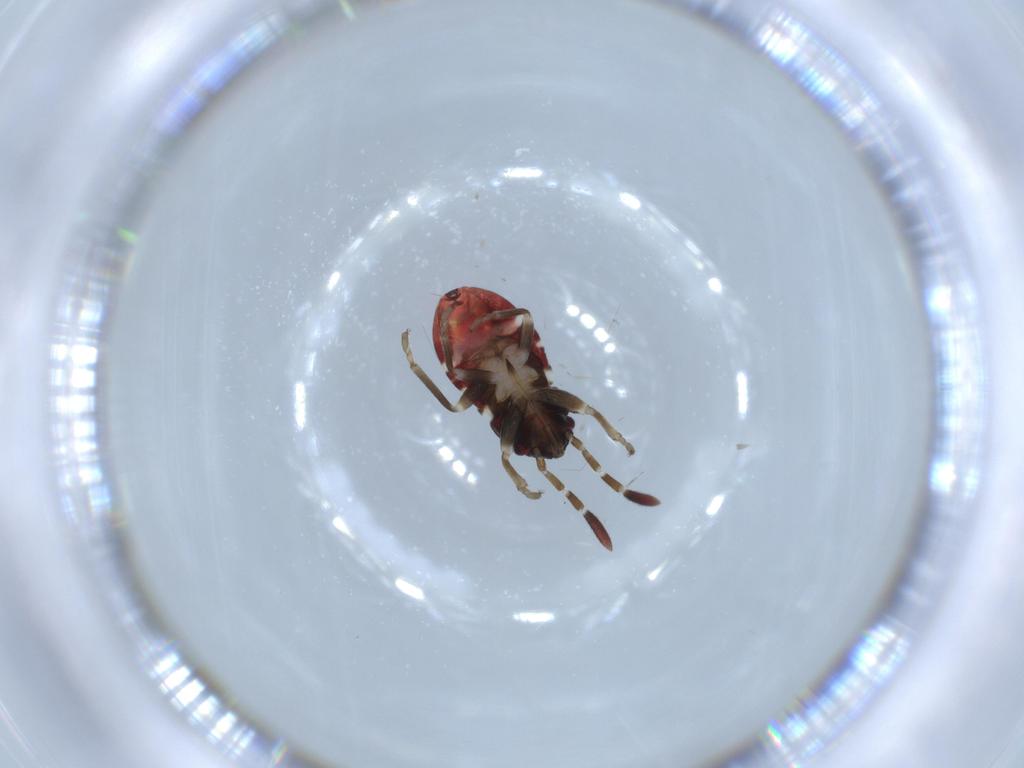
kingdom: Animalia
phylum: Arthropoda
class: Insecta
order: Hemiptera
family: Rhyparochromidae
